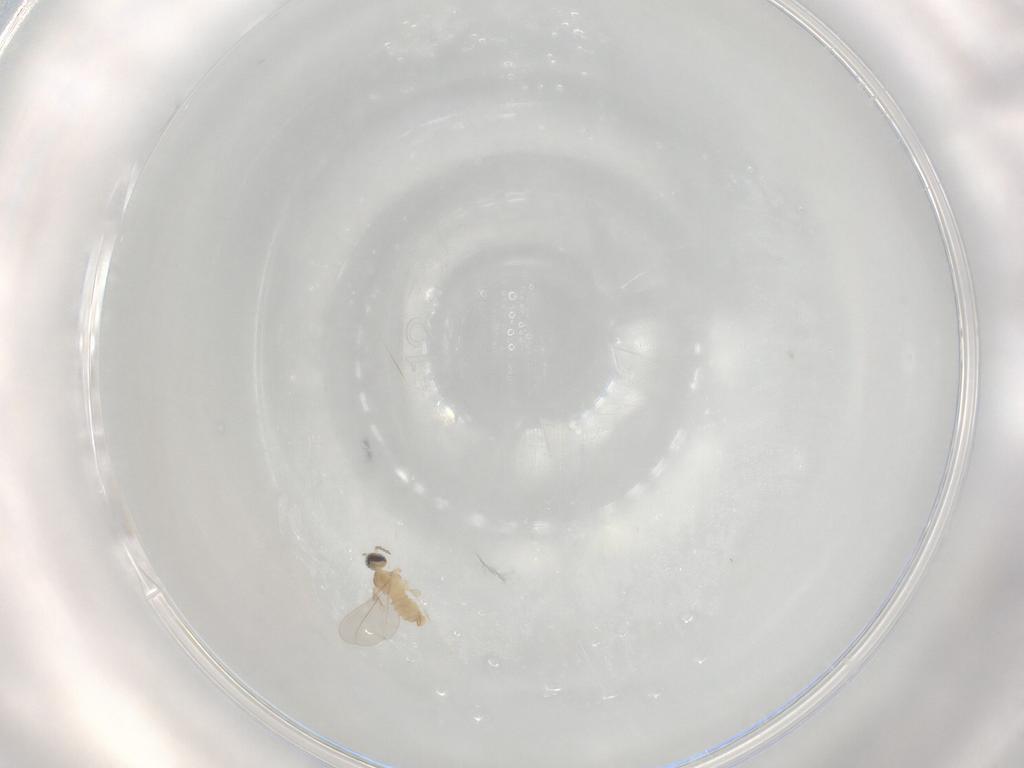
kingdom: Animalia
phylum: Arthropoda
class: Insecta
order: Diptera
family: Cecidomyiidae
